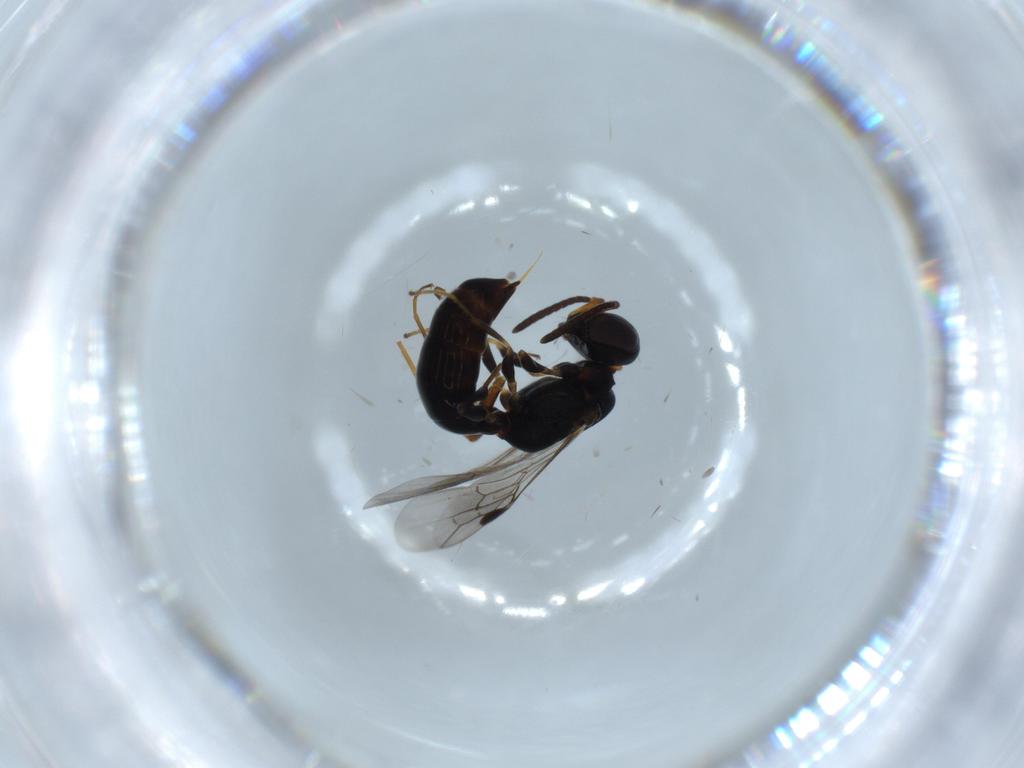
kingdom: Animalia
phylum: Arthropoda
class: Insecta
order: Hymenoptera
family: Pemphredonidae
